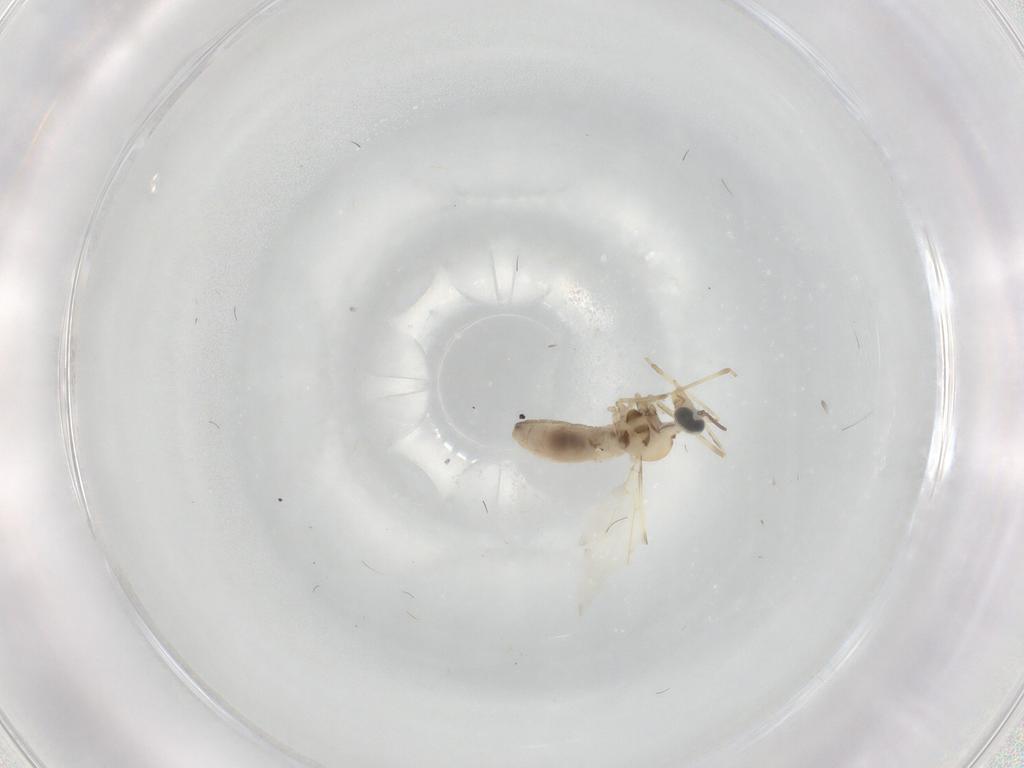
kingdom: Animalia
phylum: Arthropoda
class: Insecta
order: Diptera
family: Cecidomyiidae
